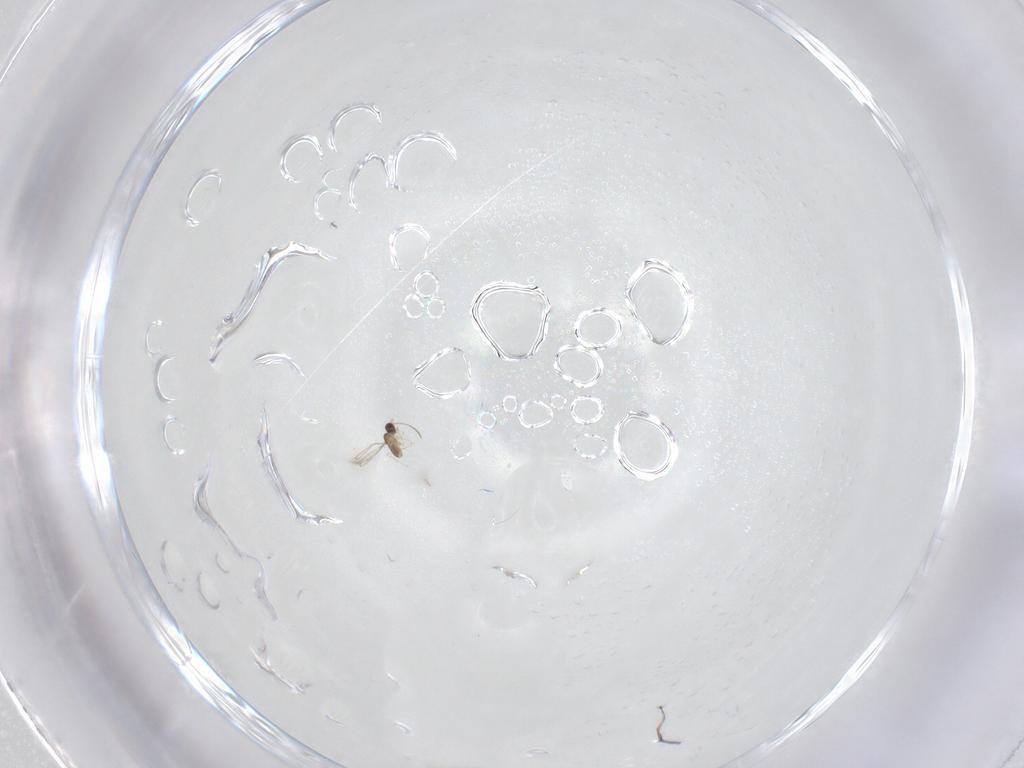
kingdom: Animalia
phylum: Arthropoda
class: Insecta
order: Hymenoptera
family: Mymaridae
